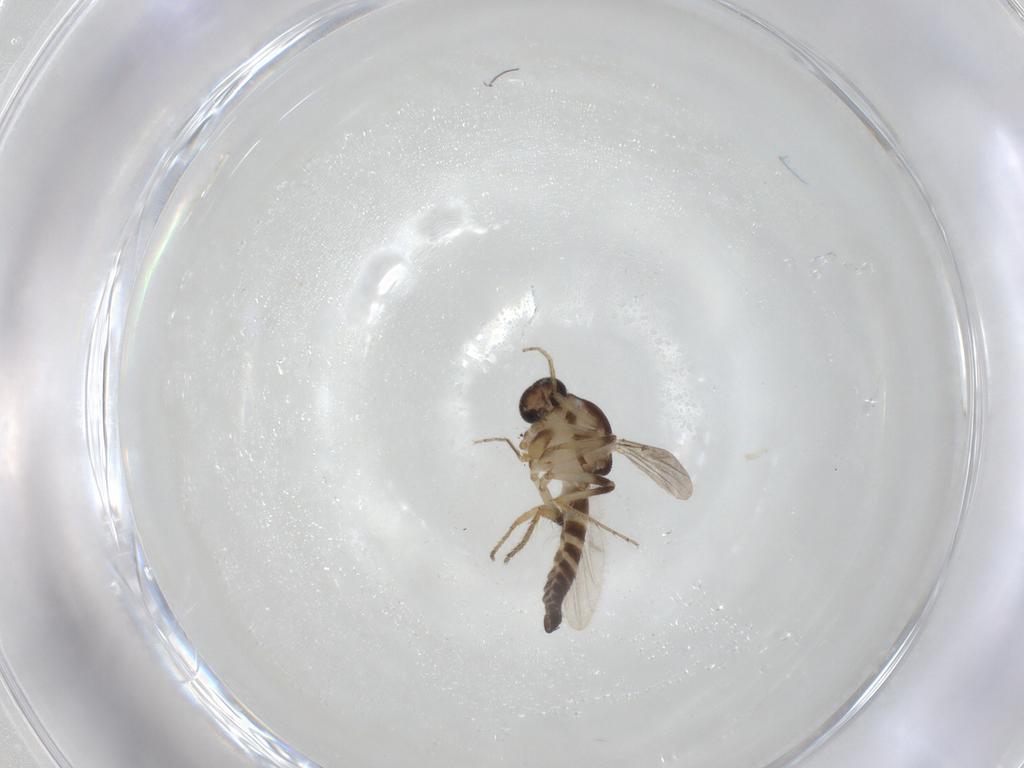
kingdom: Animalia
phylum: Arthropoda
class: Insecta
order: Diptera
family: Ceratopogonidae
